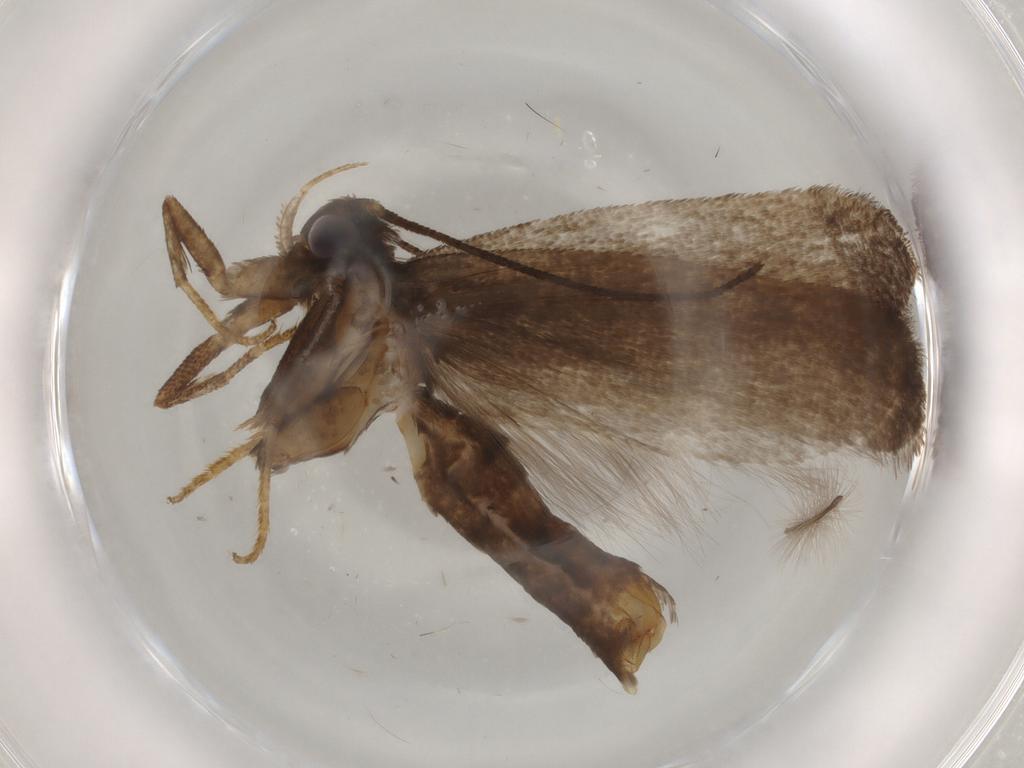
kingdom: Animalia
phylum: Arthropoda
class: Insecta
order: Lepidoptera
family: Gelechiidae
